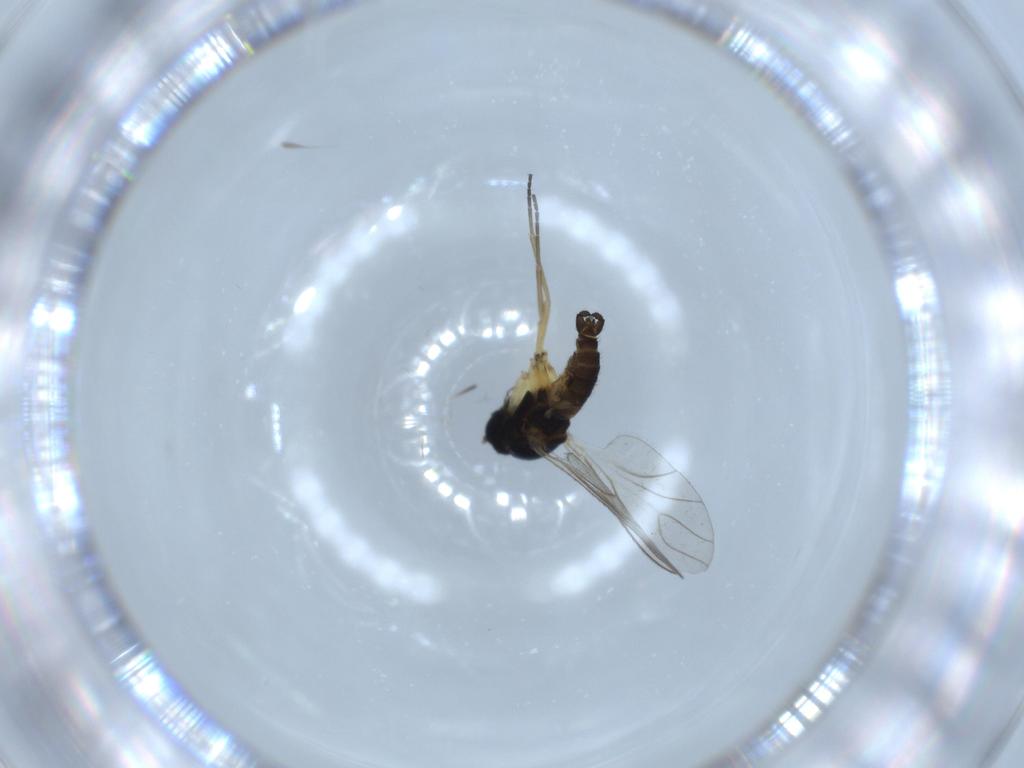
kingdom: Animalia
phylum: Arthropoda
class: Insecta
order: Diptera
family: Sciaridae
